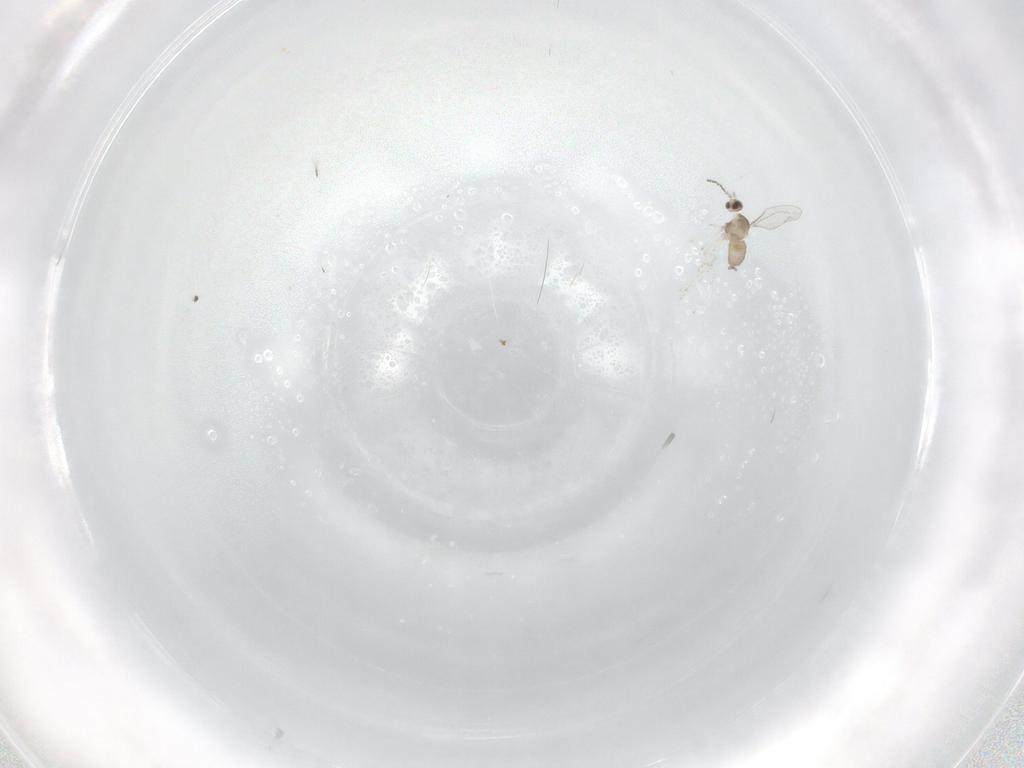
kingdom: Animalia
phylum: Arthropoda
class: Insecta
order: Diptera
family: Cecidomyiidae
